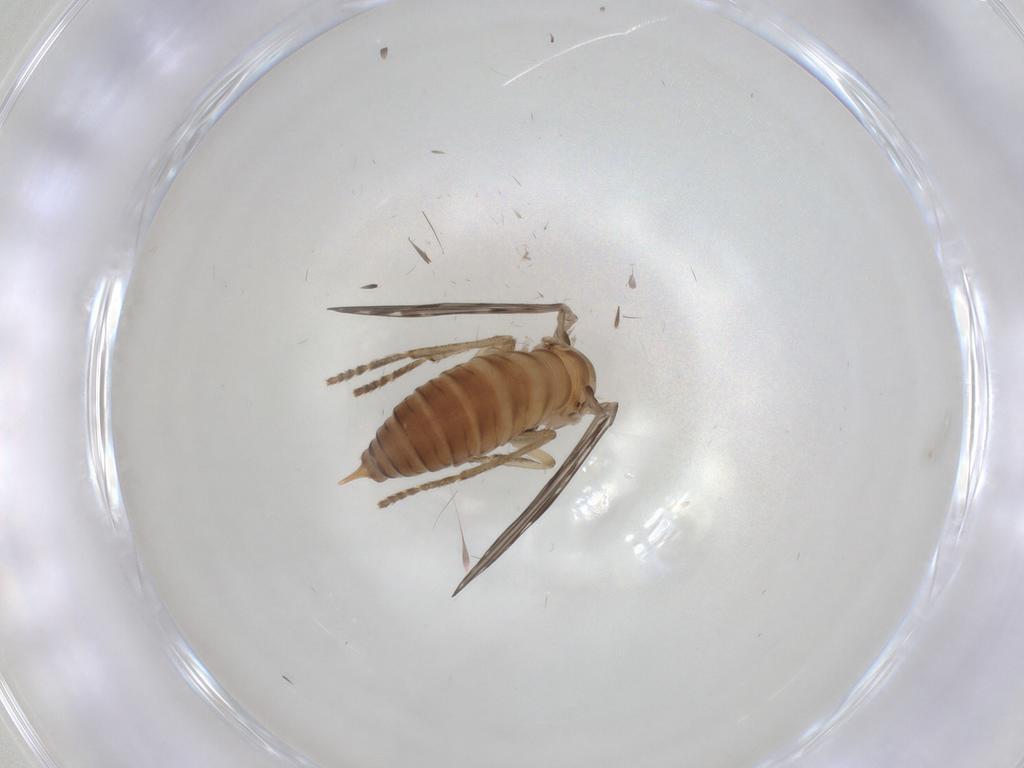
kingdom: Animalia
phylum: Arthropoda
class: Insecta
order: Diptera
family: Psychodidae
